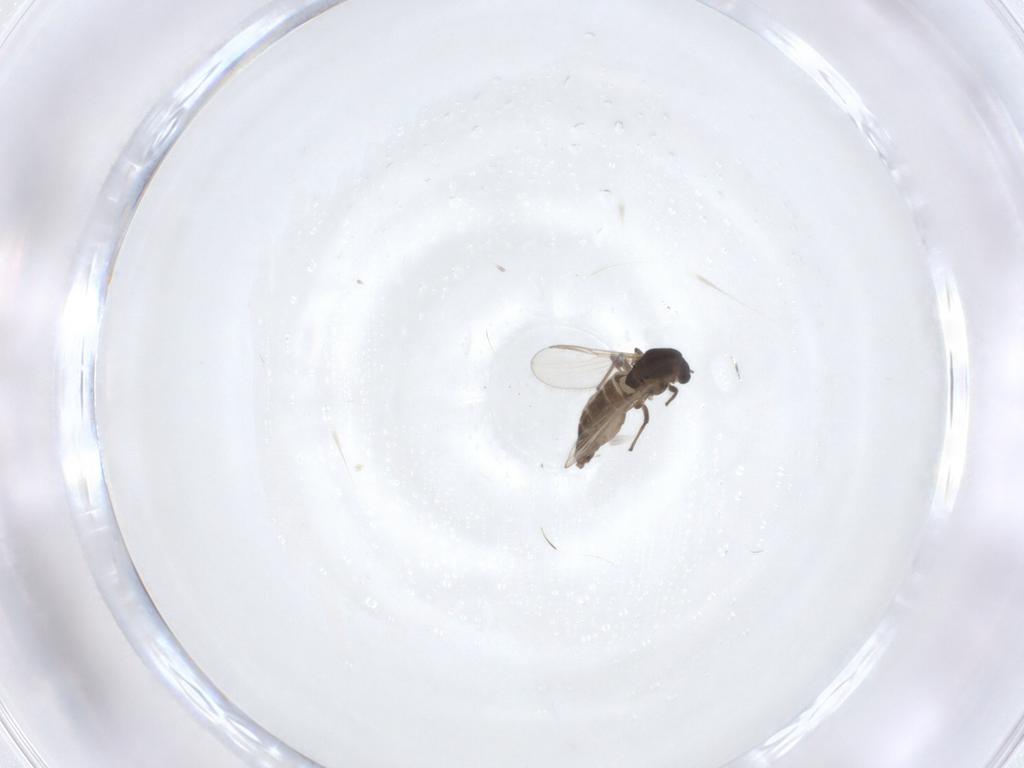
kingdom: Animalia
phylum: Arthropoda
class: Insecta
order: Diptera
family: Chironomidae
